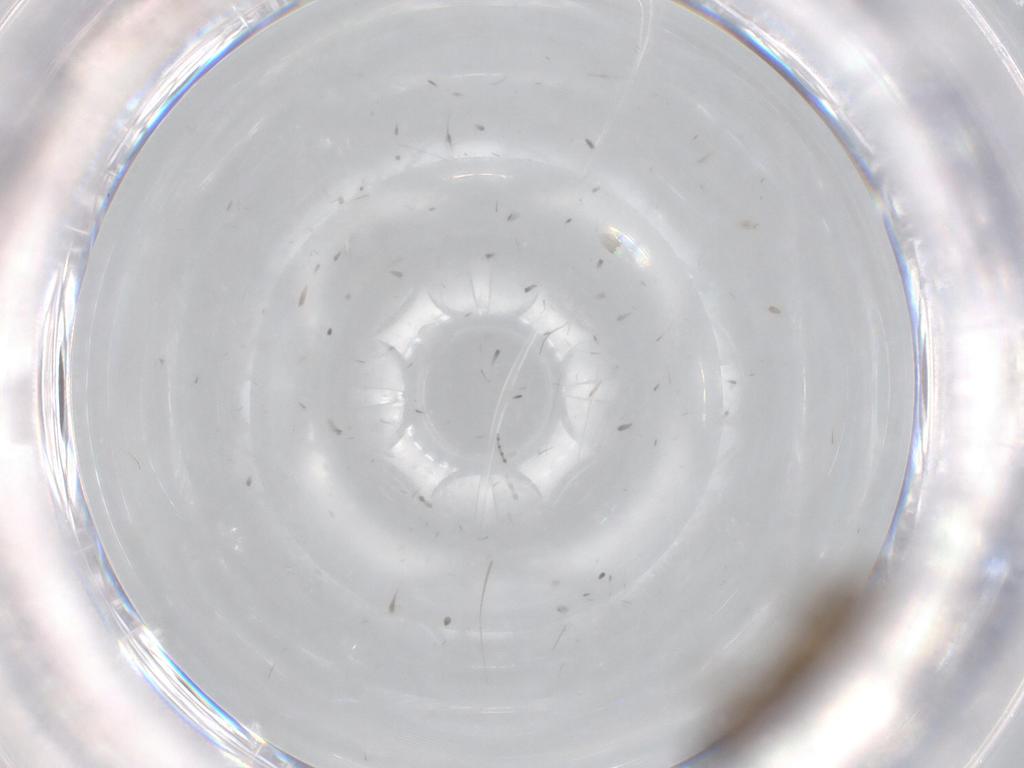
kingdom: Animalia
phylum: Arthropoda
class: Insecta
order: Diptera
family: Cecidomyiidae
